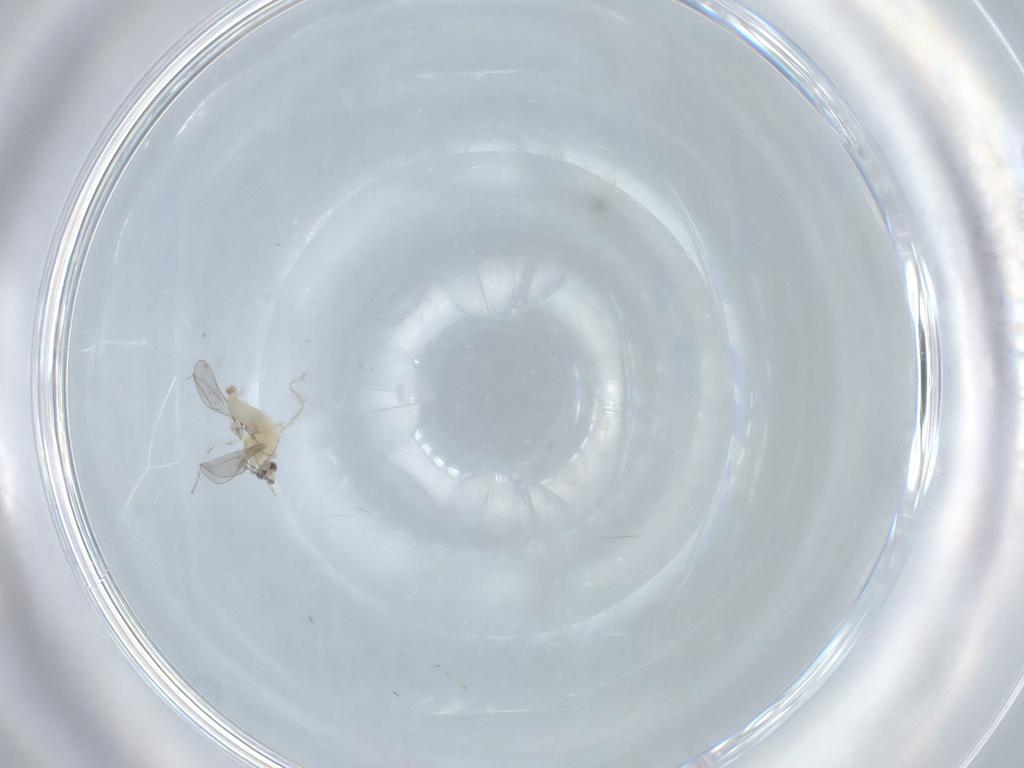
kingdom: Animalia
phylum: Arthropoda
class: Insecta
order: Diptera
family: Cecidomyiidae
